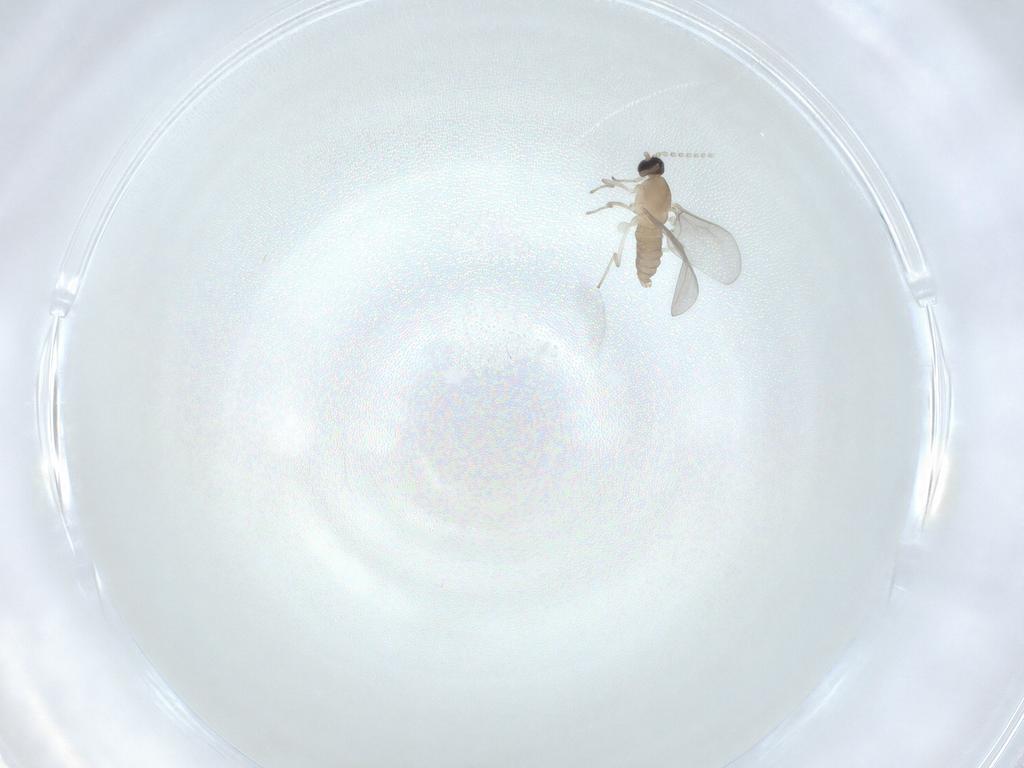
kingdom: Animalia
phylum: Arthropoda
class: Insecta
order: Diptera
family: Cecidomyiidae
